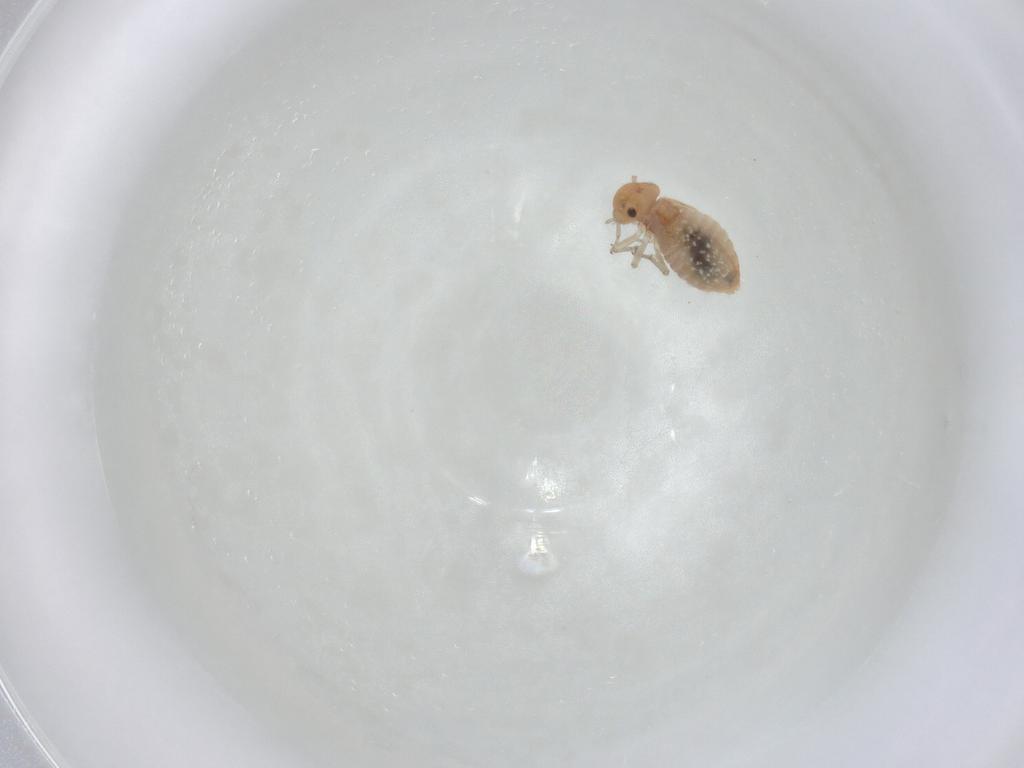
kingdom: Animalia
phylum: Arthropoda
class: Insecta
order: Psocodea
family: Lachesillidae
